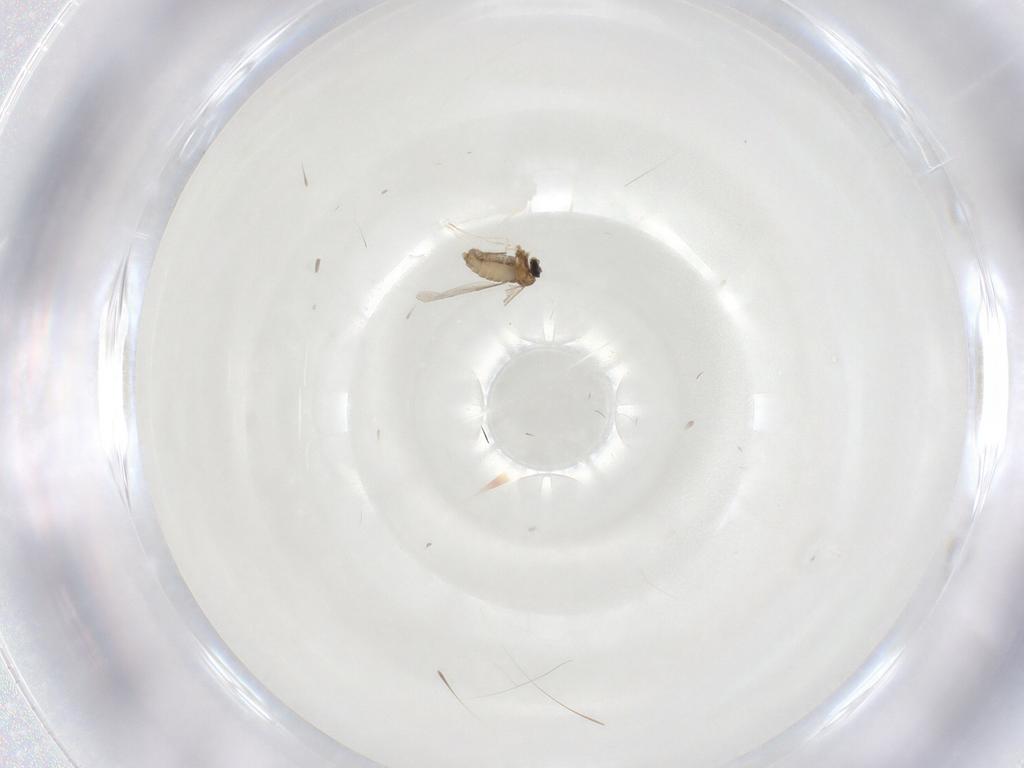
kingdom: Animalia
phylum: Arthropoda
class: Insecta
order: Diptera
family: Cecidomyiidae
